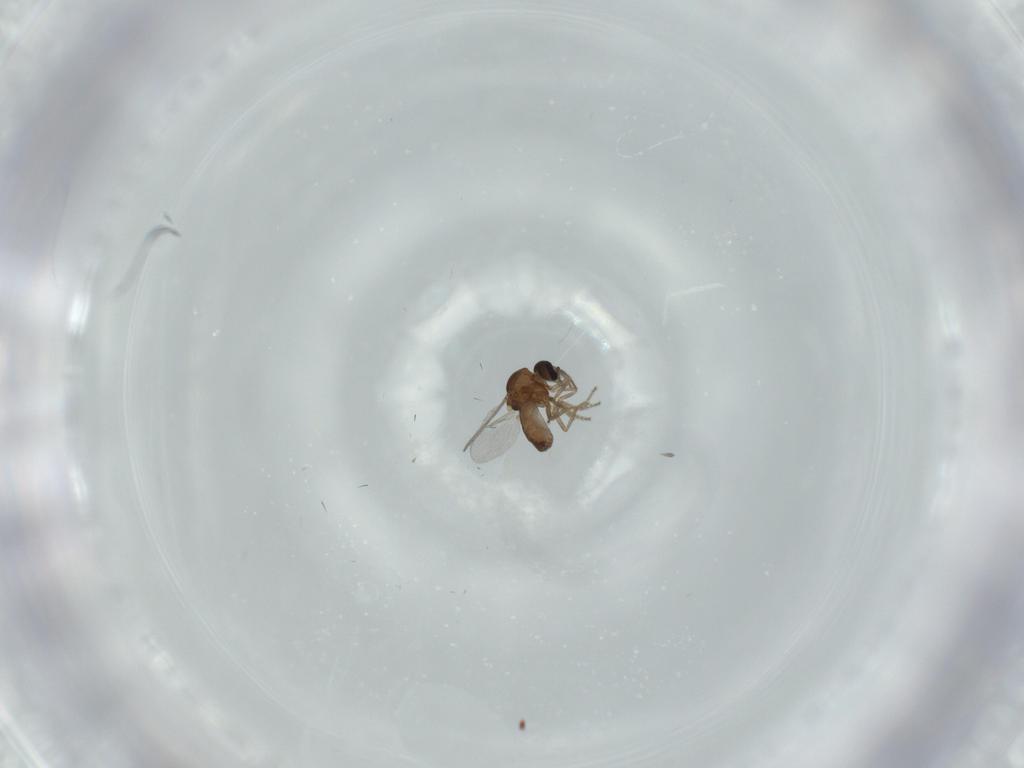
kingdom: Animalia
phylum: Arthropoda
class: Insecta
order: Diptera
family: Ceratopogonidae
